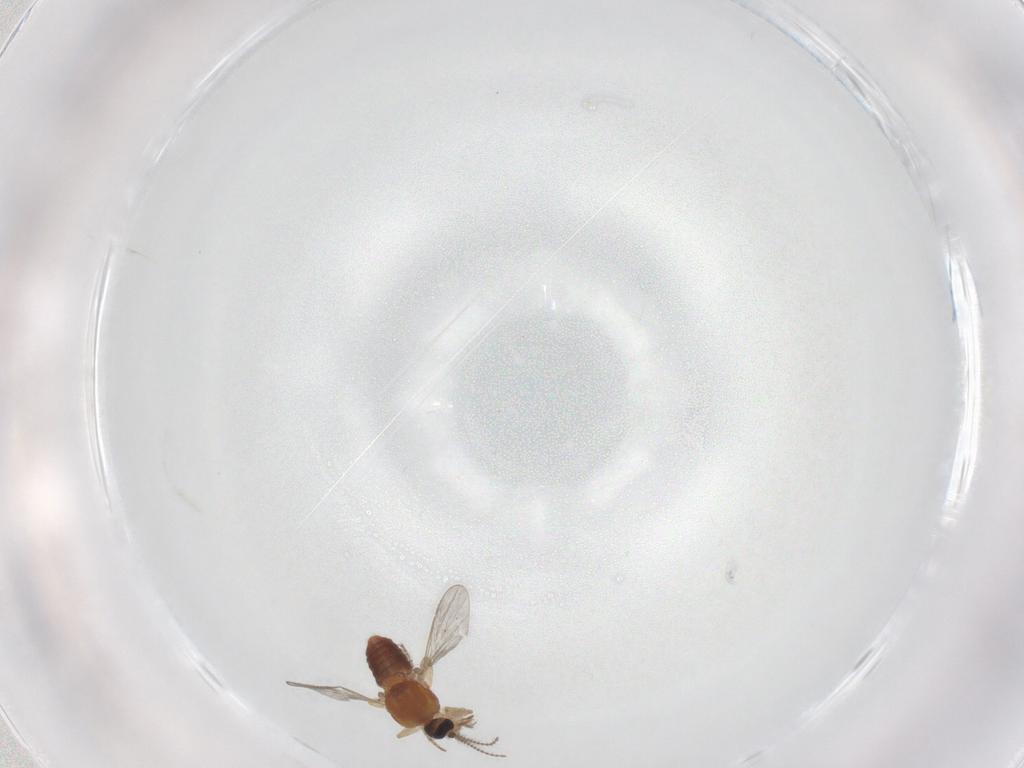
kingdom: Animalia
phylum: Arthropoda
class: Insecta
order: Diptera
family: Ceratopogonidae
